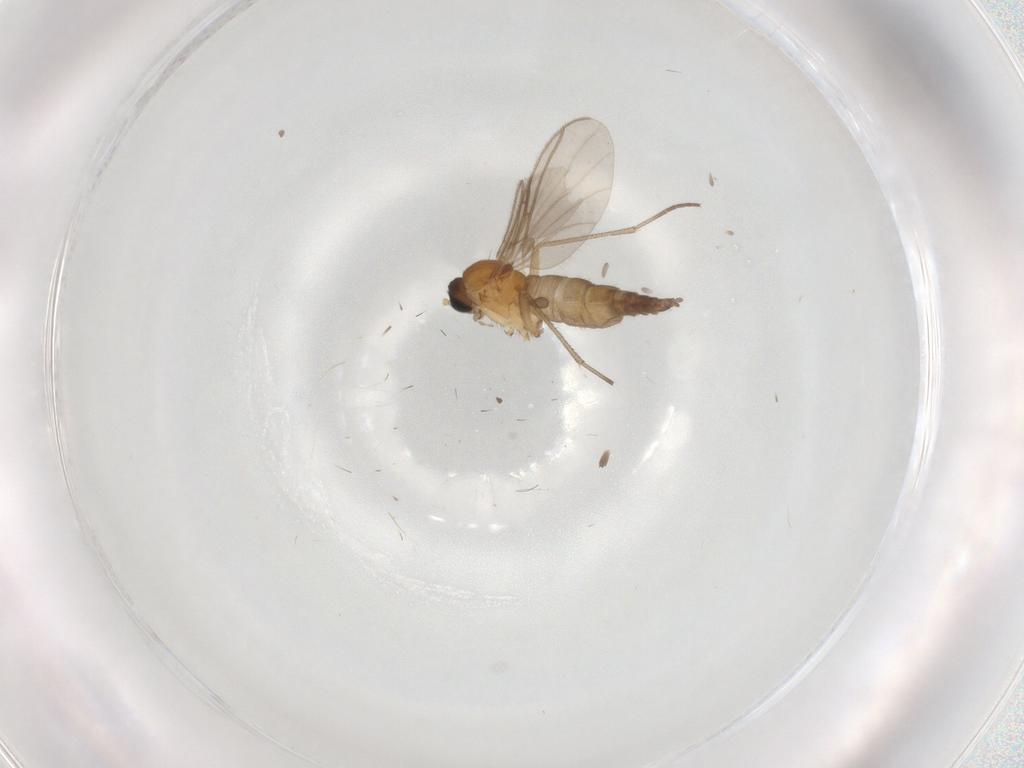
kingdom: Animalia
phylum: Arthropoda
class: Insecta
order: Diptera
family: Sciaridae
